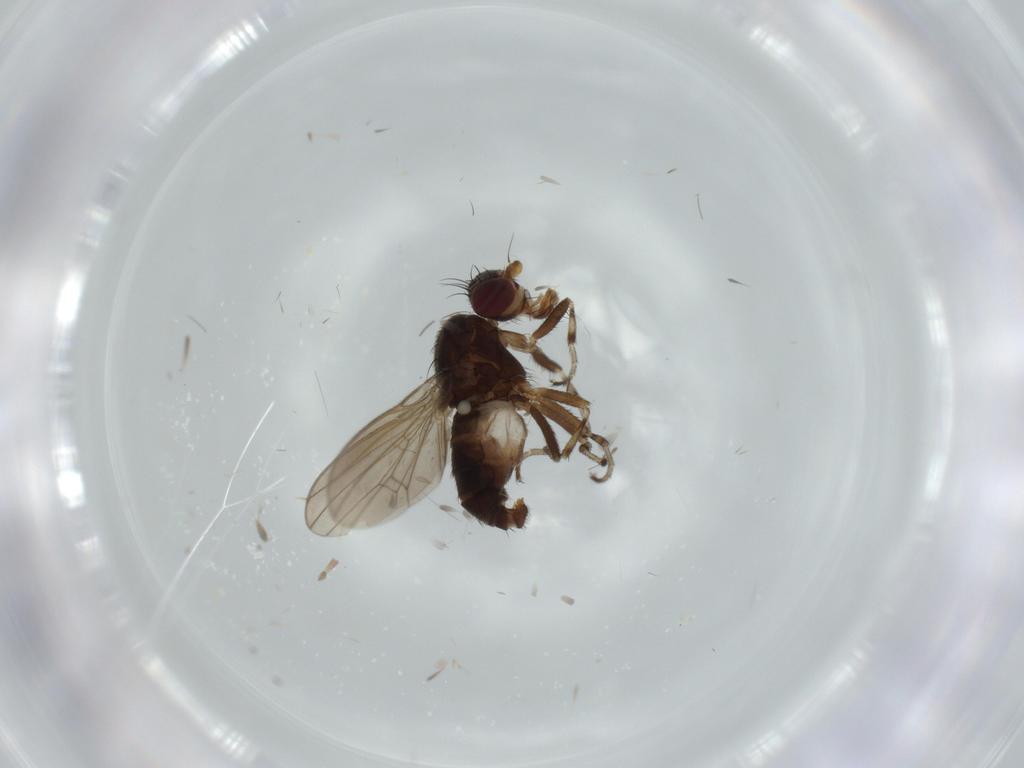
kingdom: Animalia
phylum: Arthropoda
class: Insecta
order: Diptera
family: Heleomyzidae
